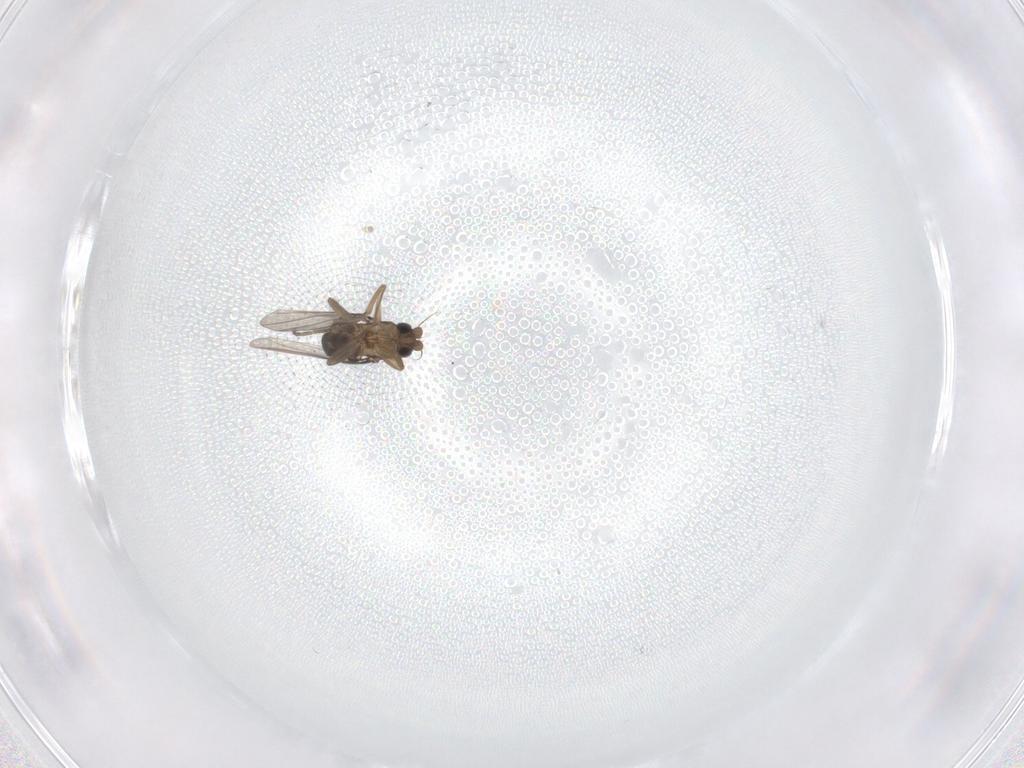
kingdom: Animalia
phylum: Arthropoda
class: Insecta
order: Diptera
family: Phoridae
